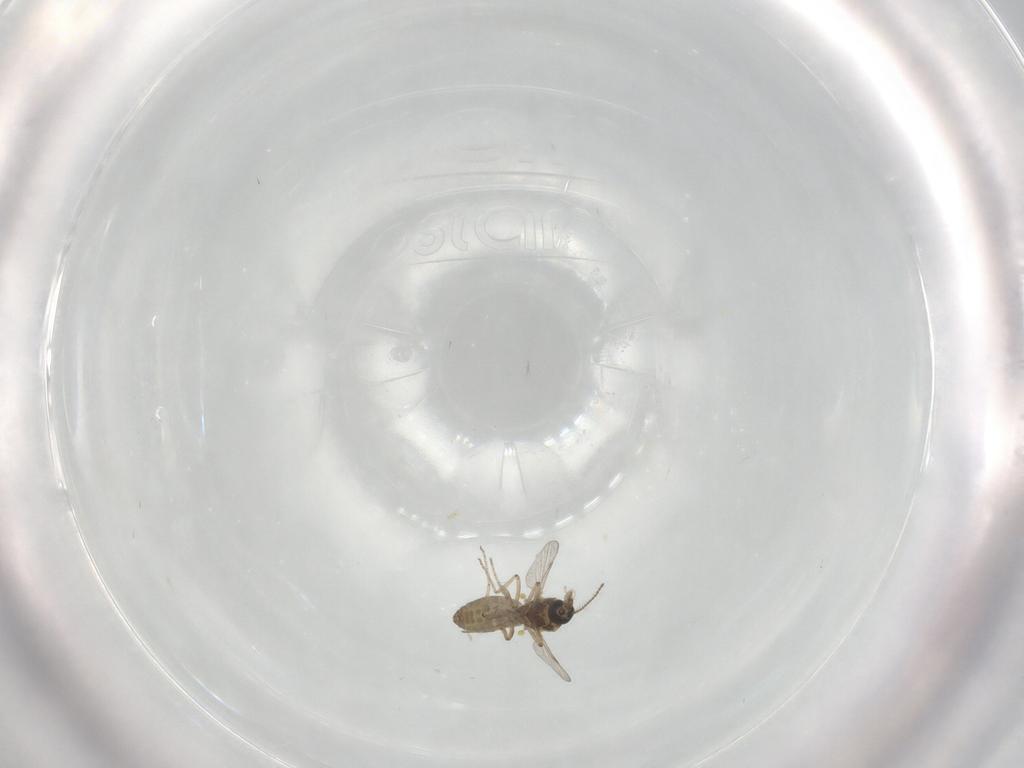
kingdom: Animalia
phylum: Arthropoda
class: Insecta
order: Diptera
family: Ceratopogonidae
